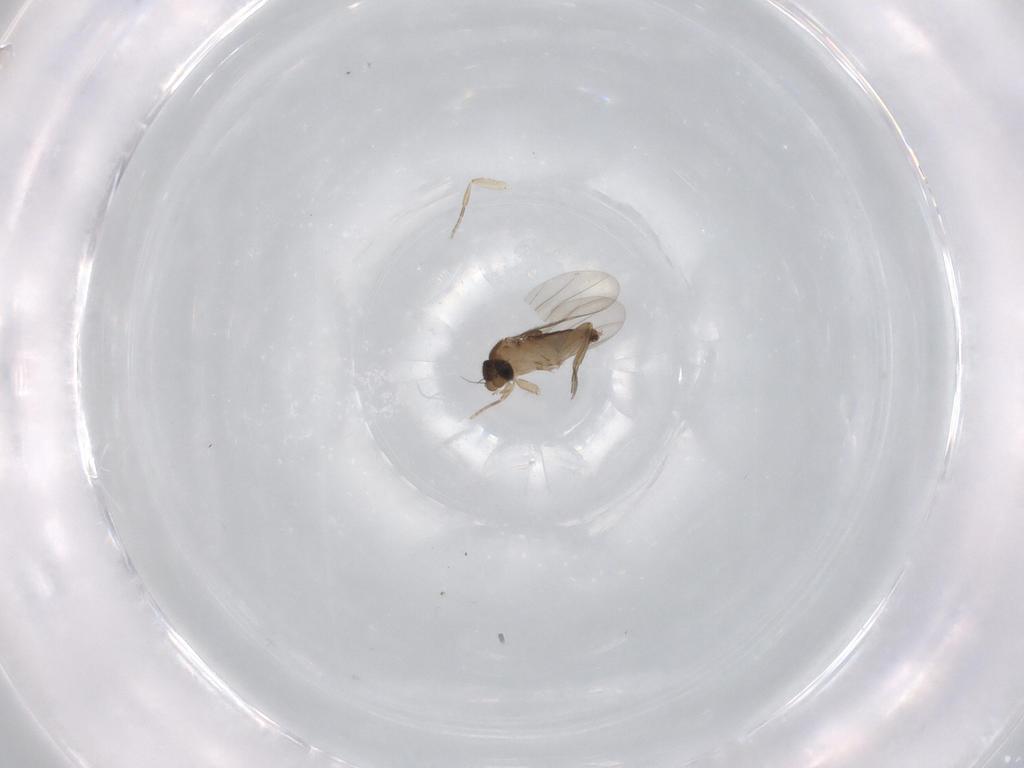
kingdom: Animalia
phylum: Arthropoda
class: Insecta
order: Diptera
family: Phoridae
